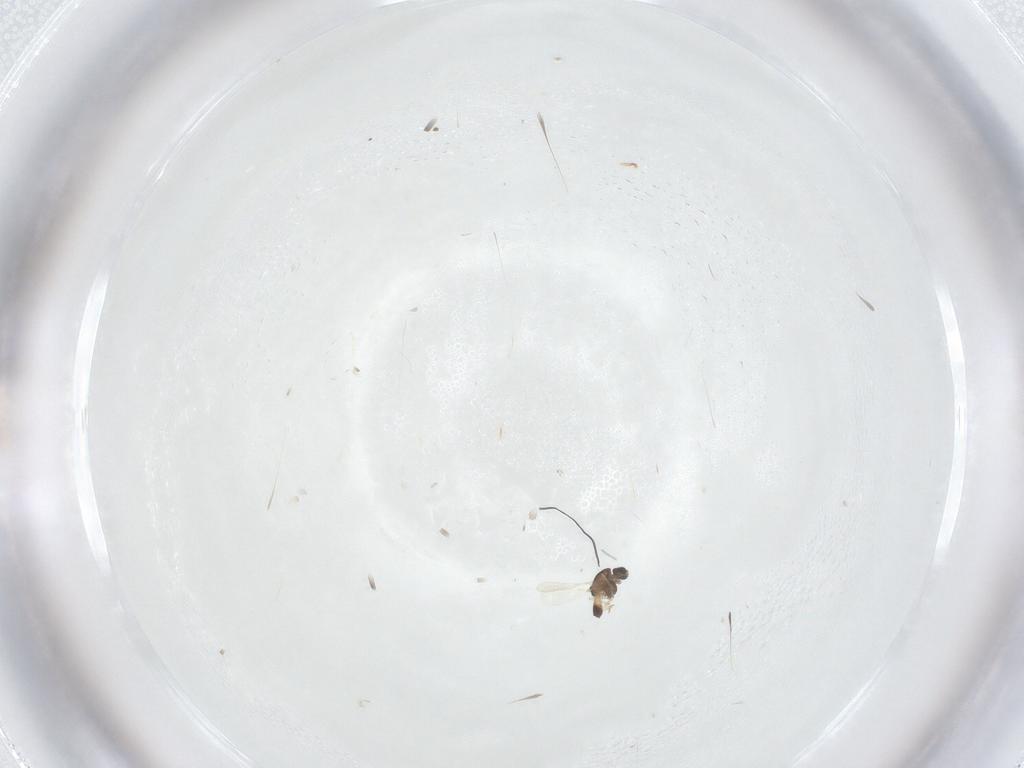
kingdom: Animalia
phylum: Arthropoda
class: Insecta
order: Diptera
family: Chironomidae
